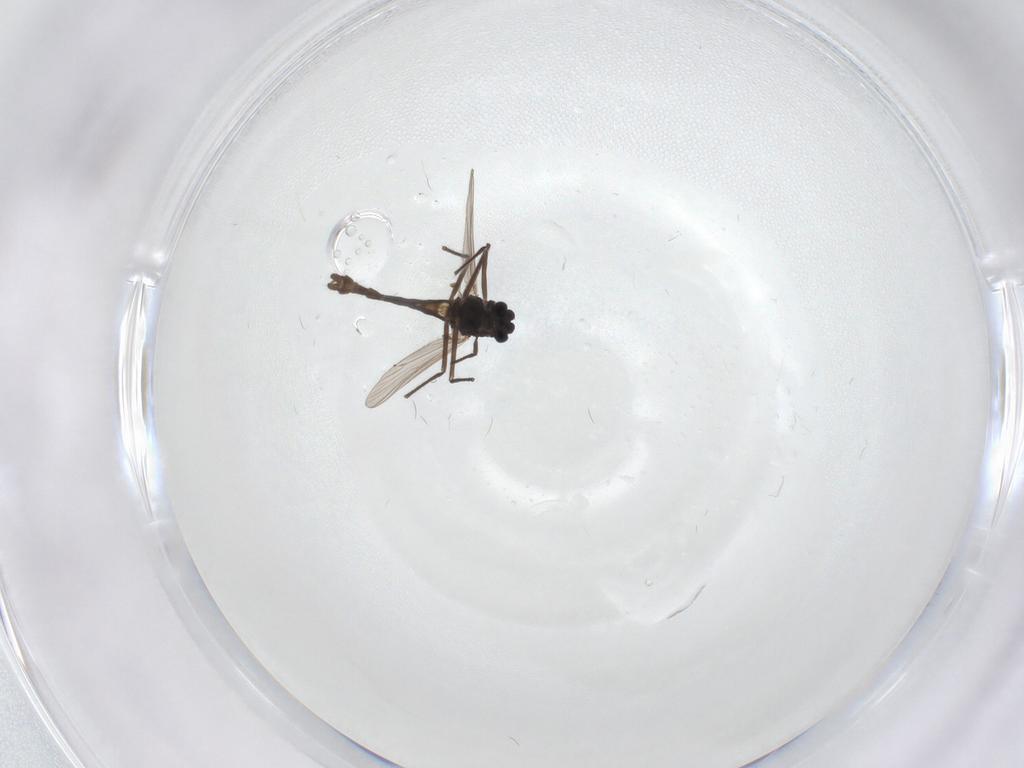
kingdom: Animalia
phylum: Arthropoda
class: Insecta
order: Diptera
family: Chironomidae
